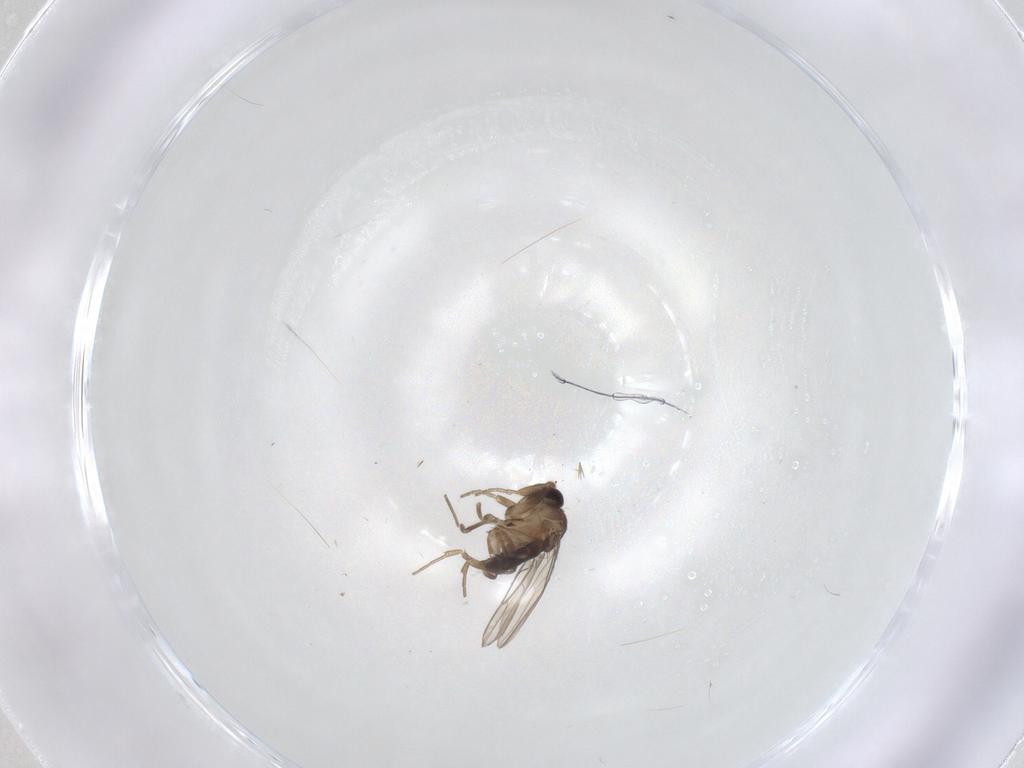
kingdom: Animalia
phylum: Arthropoda
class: Insecta
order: Diptera
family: Phoridae
